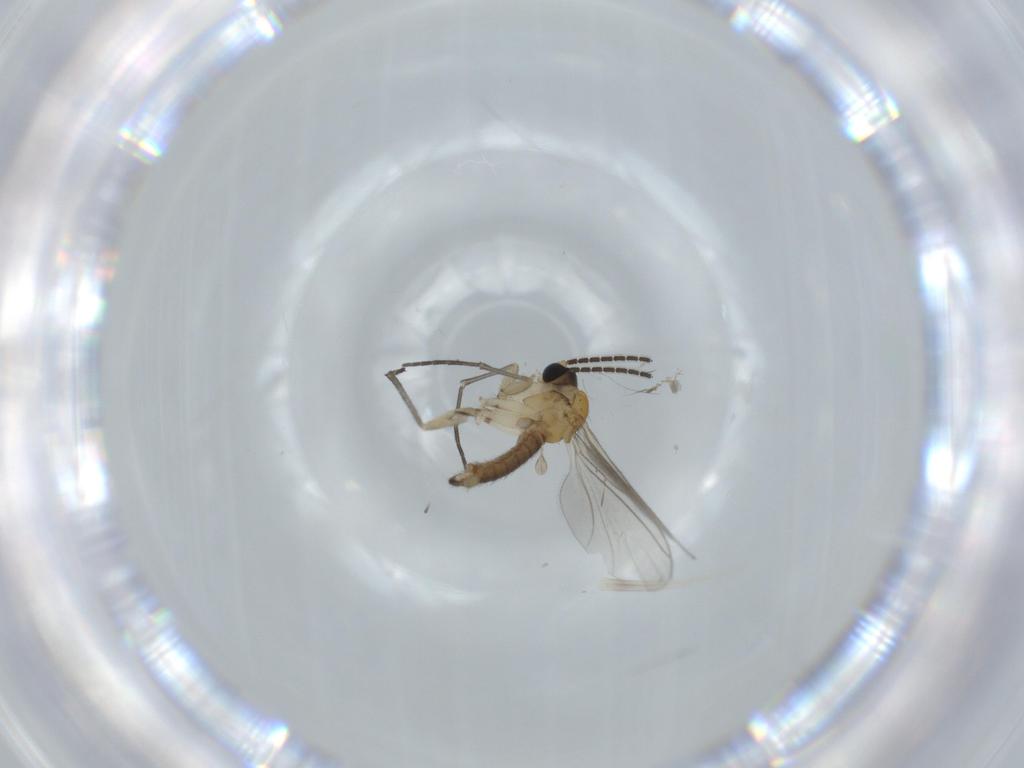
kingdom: Animalia
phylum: Arthropoda
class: Insecta
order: Diptera
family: Sciaridae
